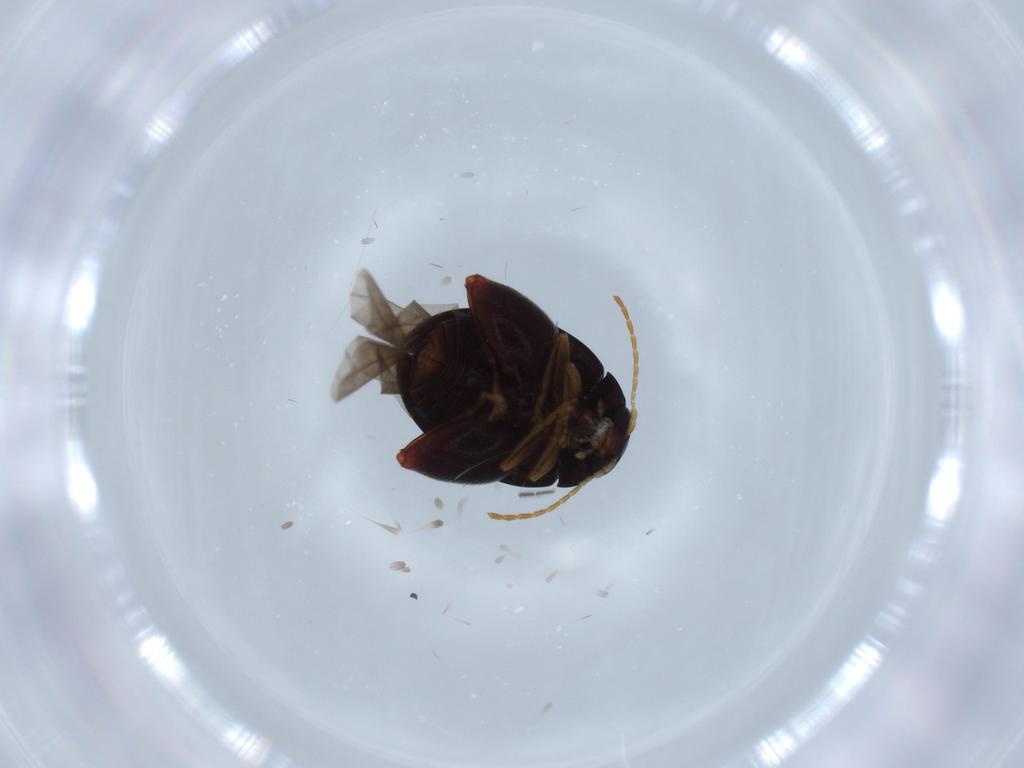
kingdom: Animalia
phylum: Arthropoda
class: Insecta
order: Coleoptera
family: Chrysomelidae
